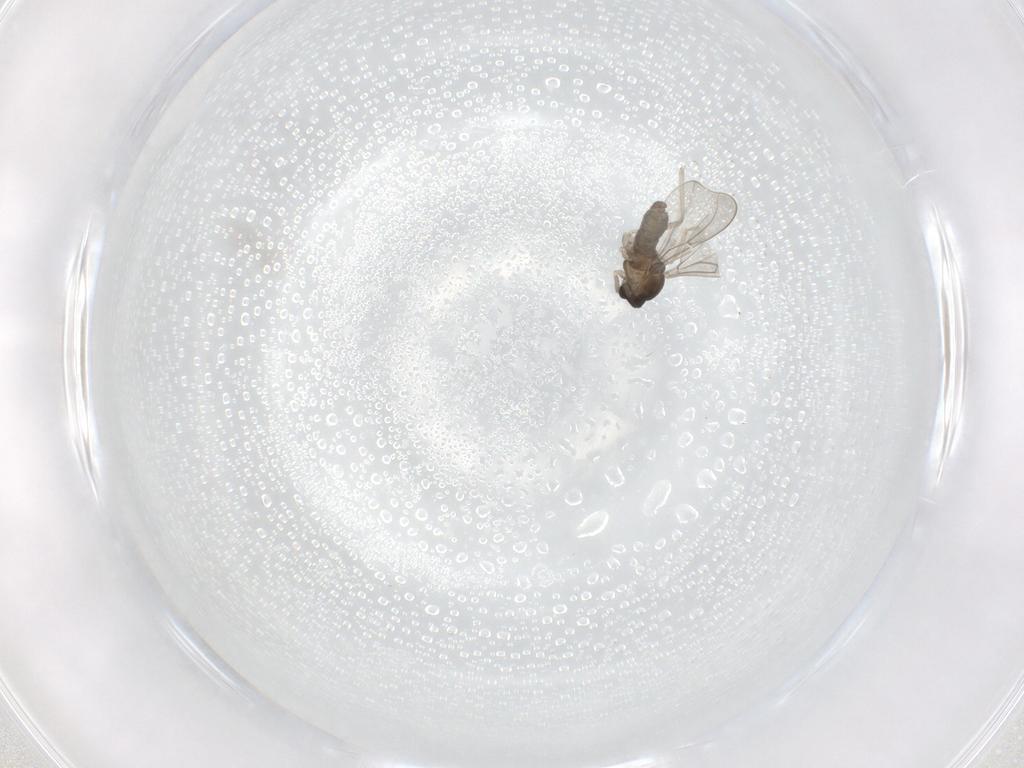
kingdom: Animalia
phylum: Arthropoda
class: Insecta
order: Diptera
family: Cecidomyiidae
